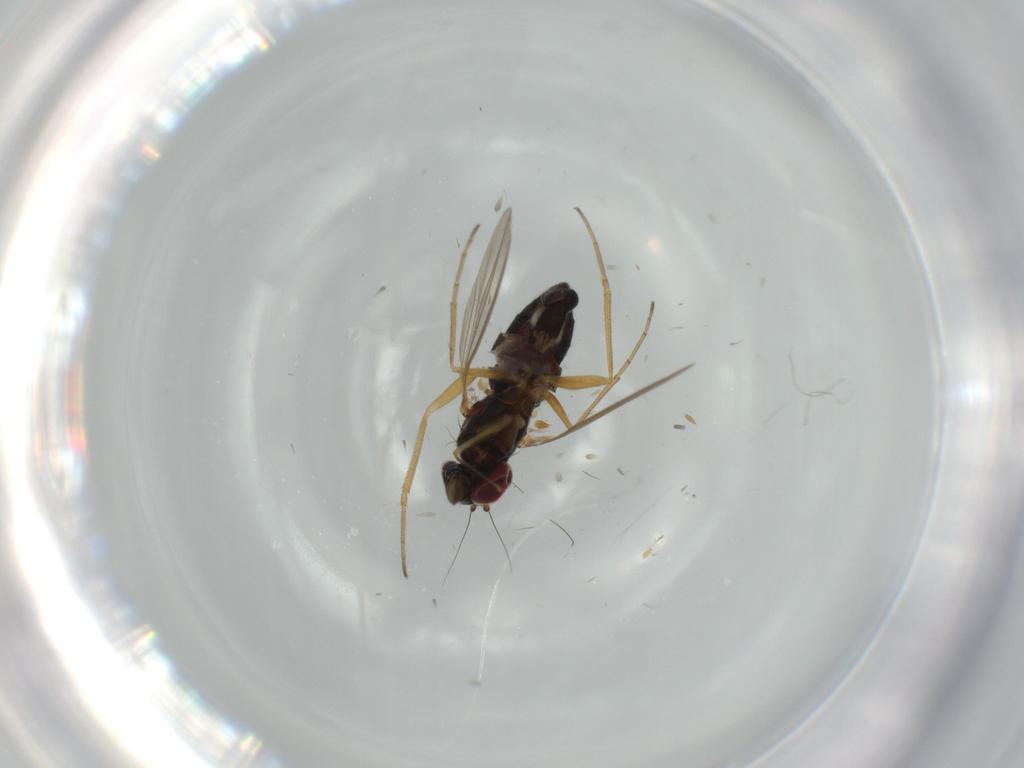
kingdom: Animalia
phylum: Arthropoda
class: Insecta
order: Diptera
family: Dolichopodidae
